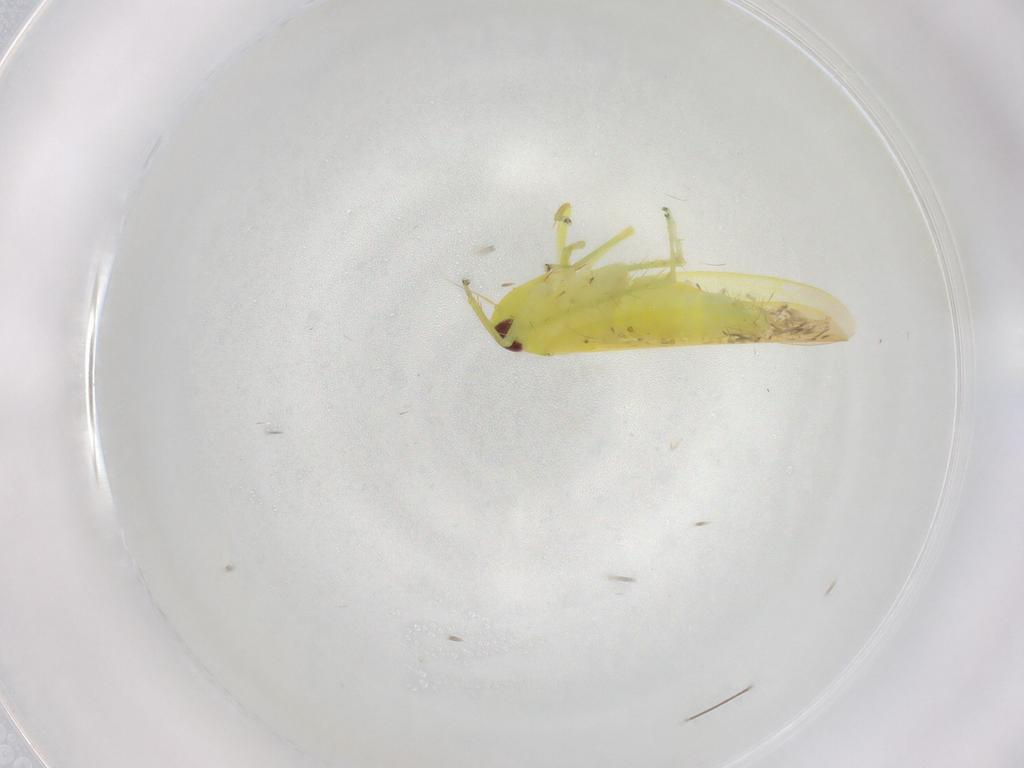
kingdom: Animalia
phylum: Arthropoda
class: Insecta
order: Hemiptera
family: Cicadellidae
